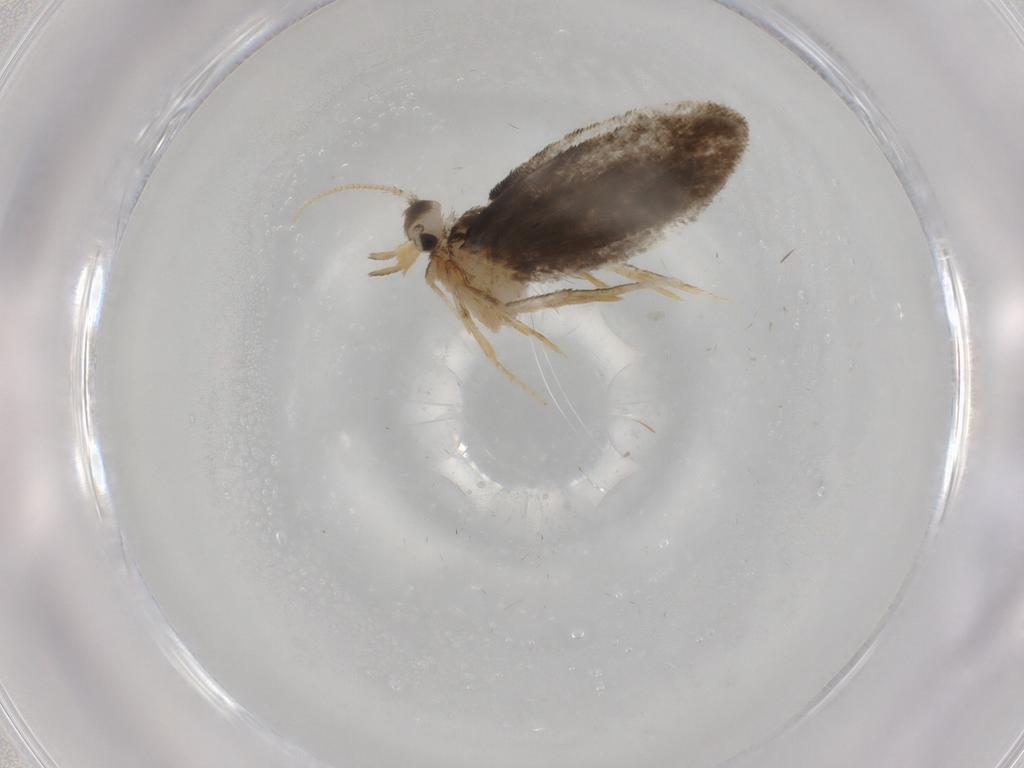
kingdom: Animalia
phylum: Arthropoda
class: Insecta
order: Lepidoptera
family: Psychidae
